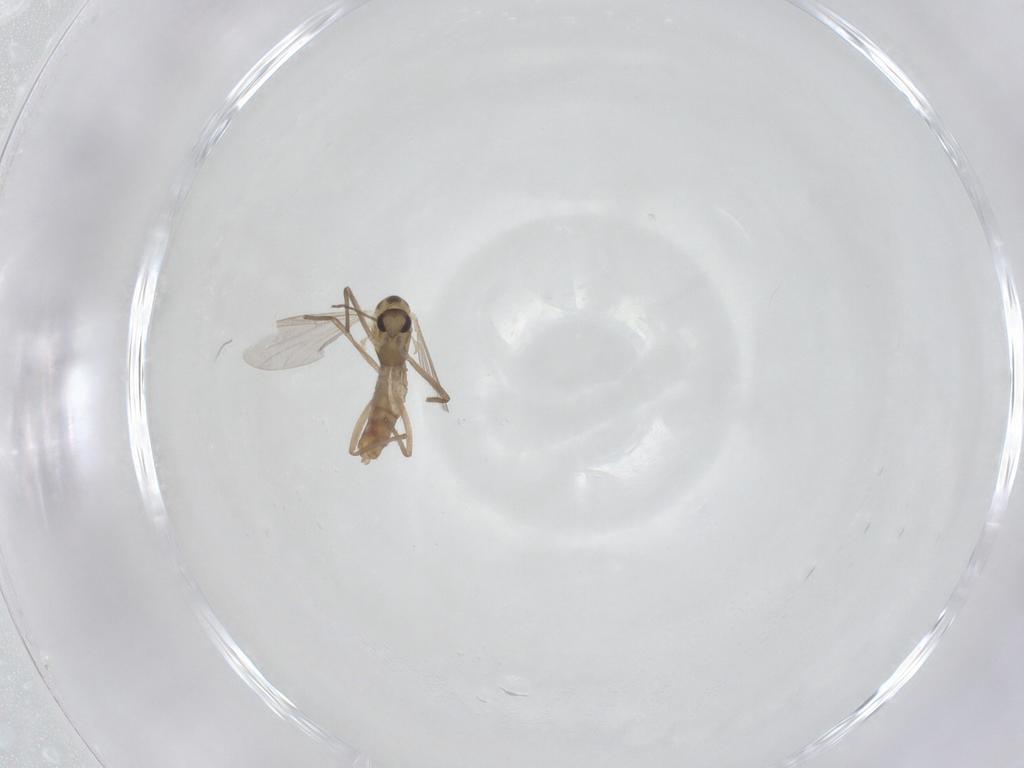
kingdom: Animalia
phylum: Arthropoda
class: Insecta
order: Diptera
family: Chironomidae
